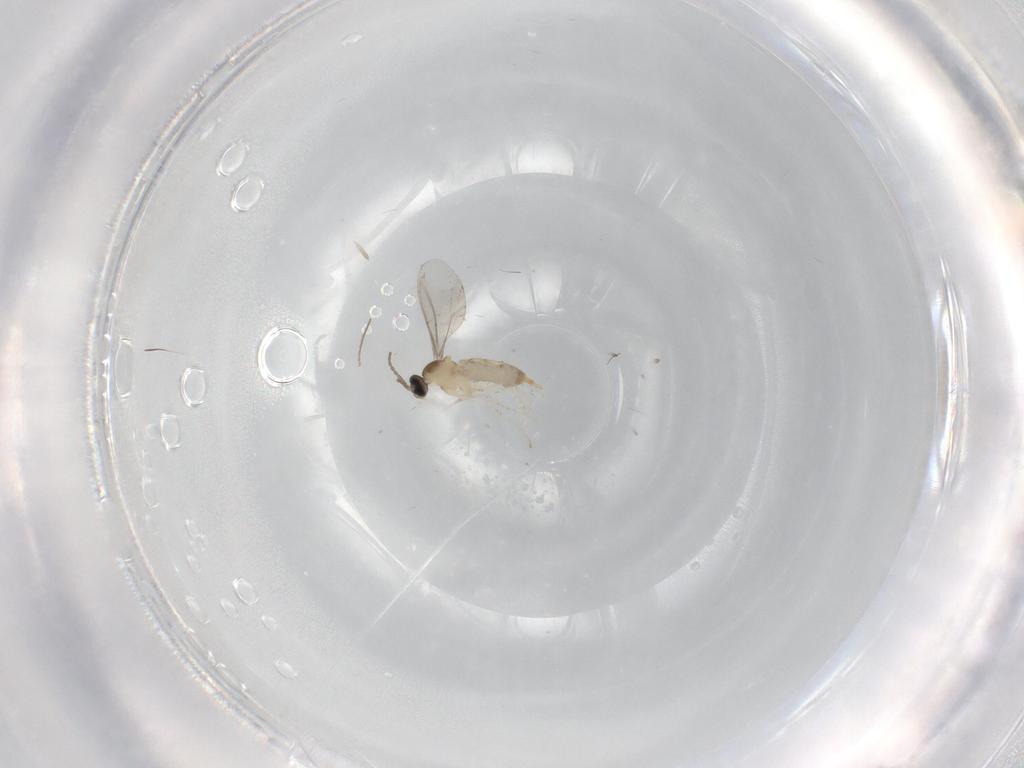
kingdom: Animalia
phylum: Arthropoda
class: Insecta
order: Diptera
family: Cecidomyiidae
